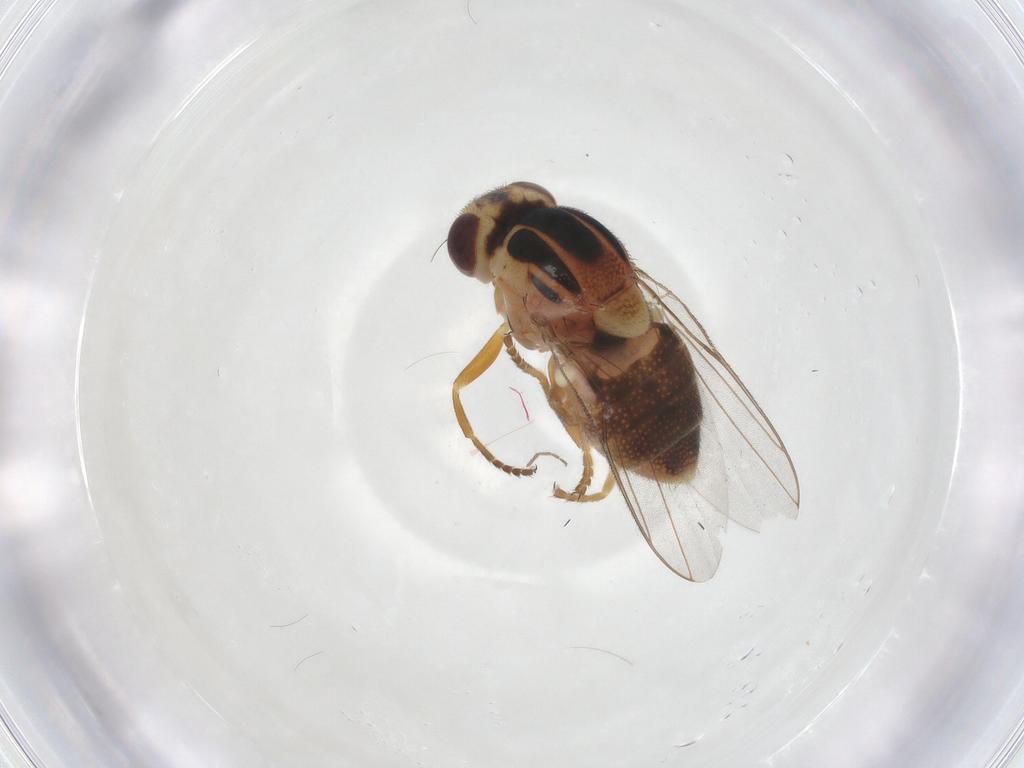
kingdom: Animalia
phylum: Arthropoda
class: Insecta
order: Diptera
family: Chloropidae
